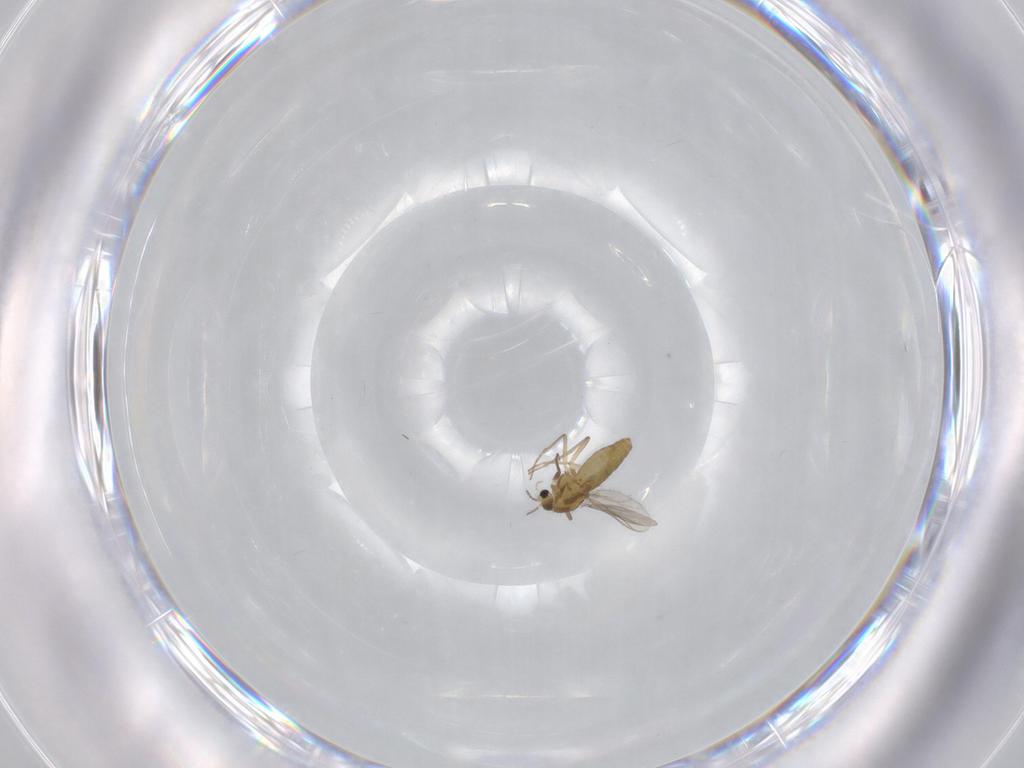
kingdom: Animalia
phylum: Arthropoda
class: Insecta
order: Diptera
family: Chironomidae
